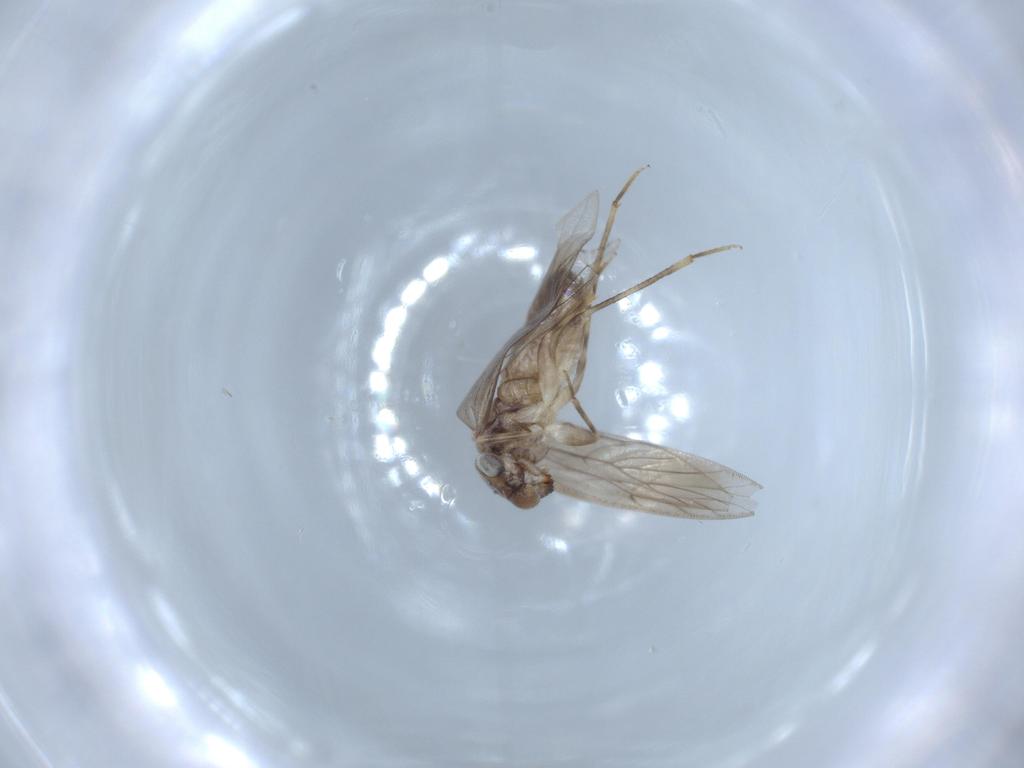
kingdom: Animalia
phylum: Arthropoda
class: Insecta
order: Psocodea
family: Lepidopsocidae
